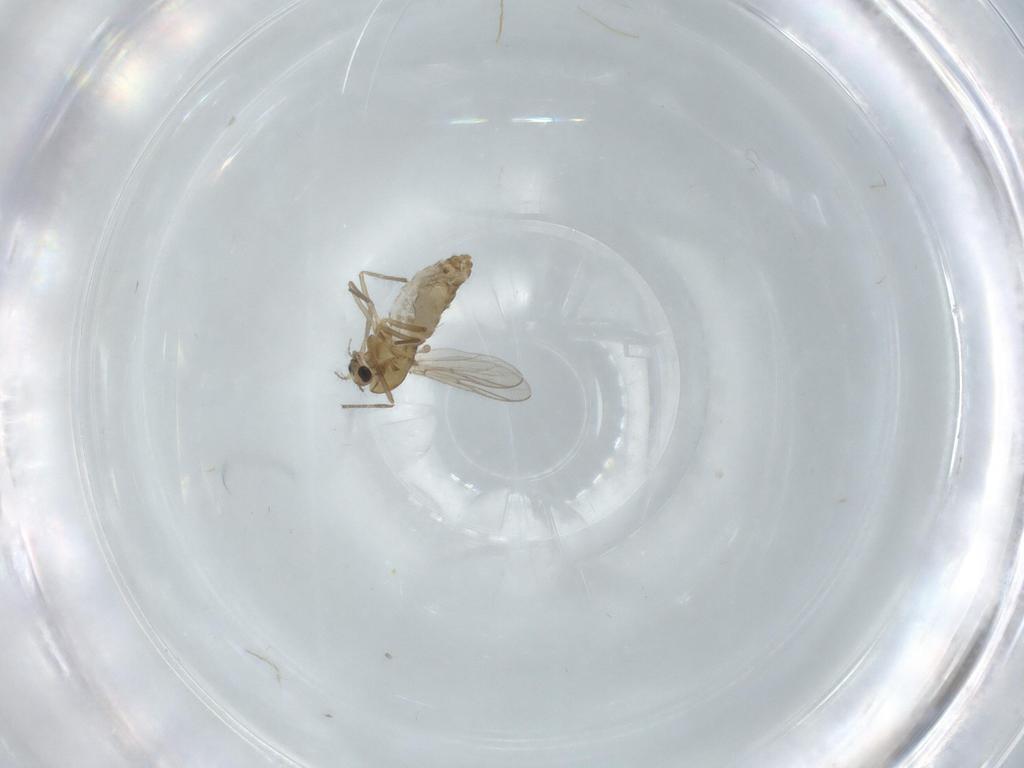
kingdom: Animalia
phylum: Arthropoda
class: Insecta
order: Diptera
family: Chironomidae
